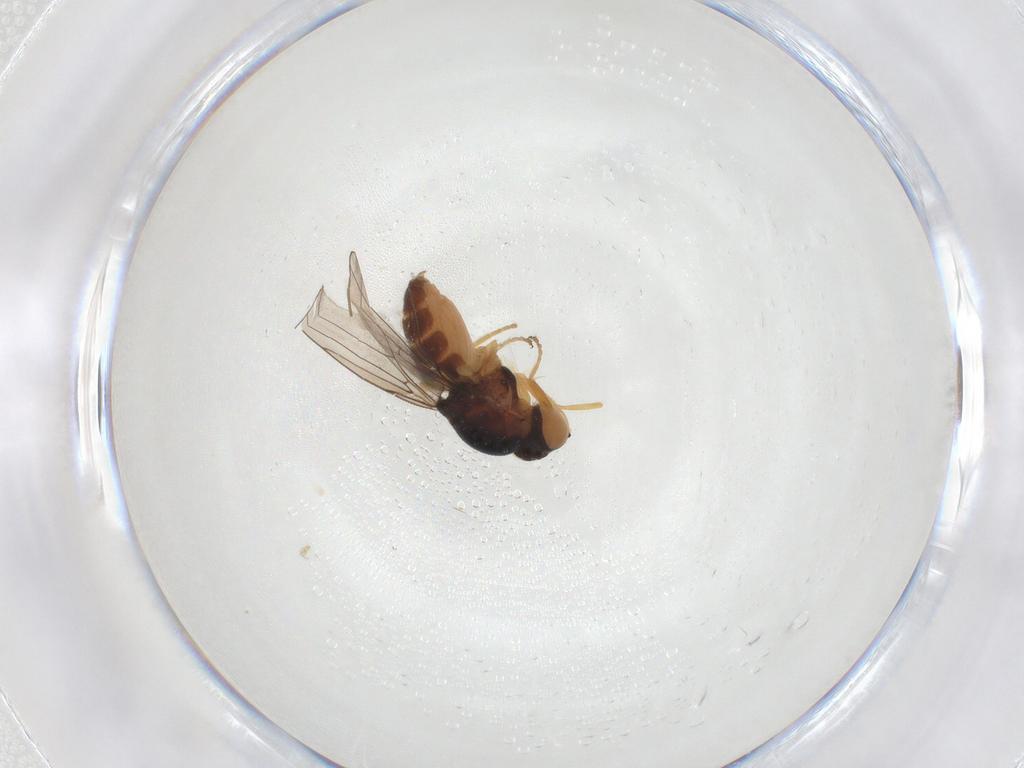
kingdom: Animalia
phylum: Arthropoda
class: Insecta
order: Diptera
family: Chloropidae
